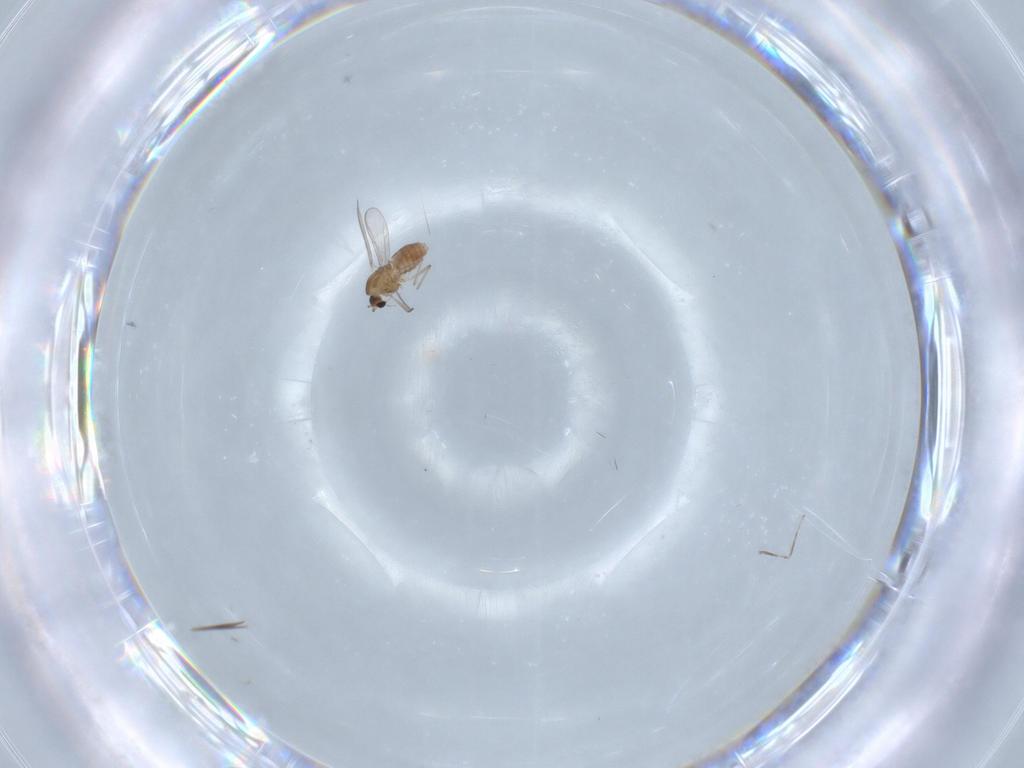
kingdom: Animalia
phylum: Arthropoda
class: Insecta
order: Diptera
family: Chironomidae
